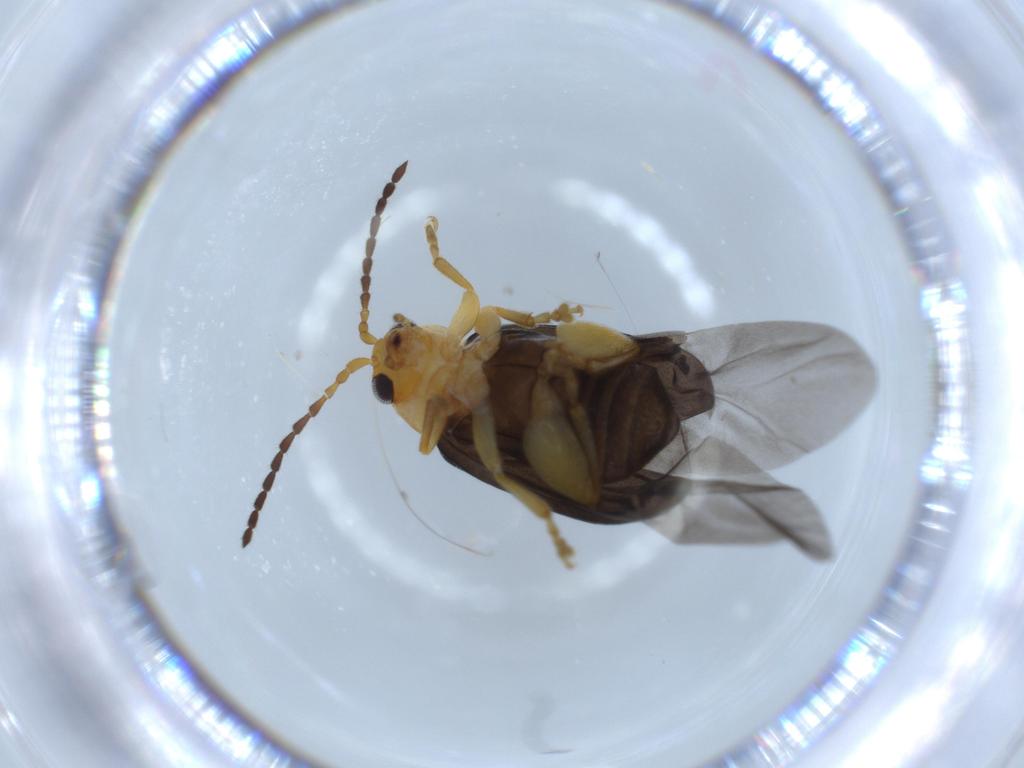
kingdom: Animalia
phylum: Arthropoda
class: Insecta
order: Coleoptera
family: Chrysomelidae
